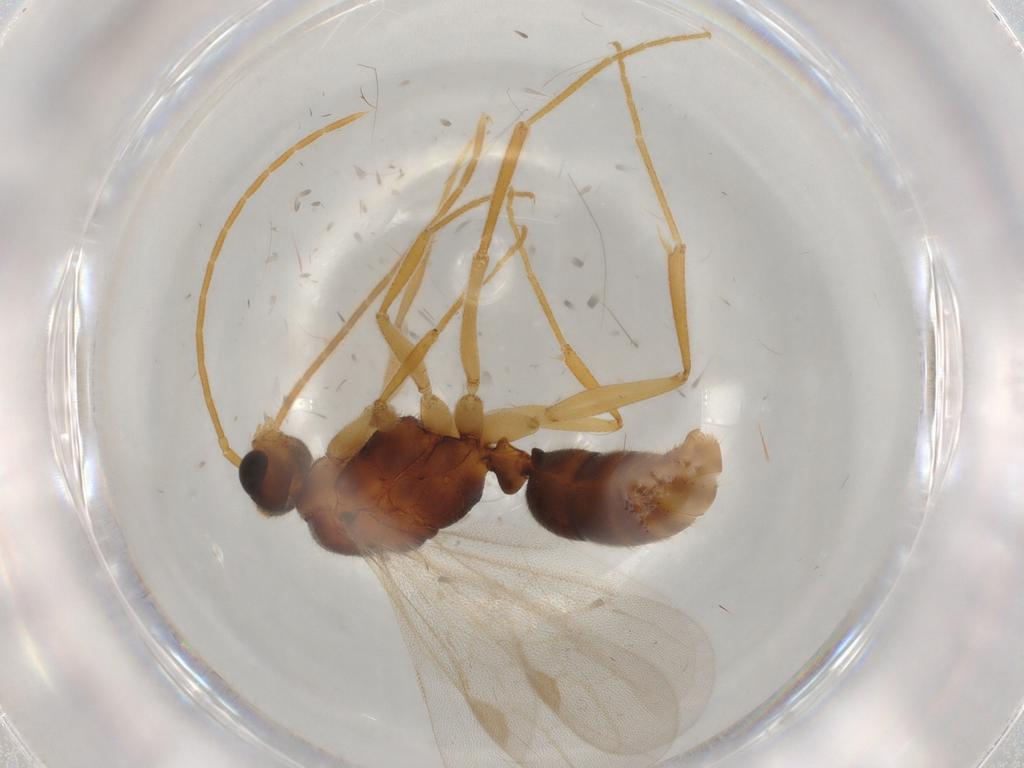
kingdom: Animalia
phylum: Arthropoda
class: Insecta
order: Hymenoptera
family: Formicidae
